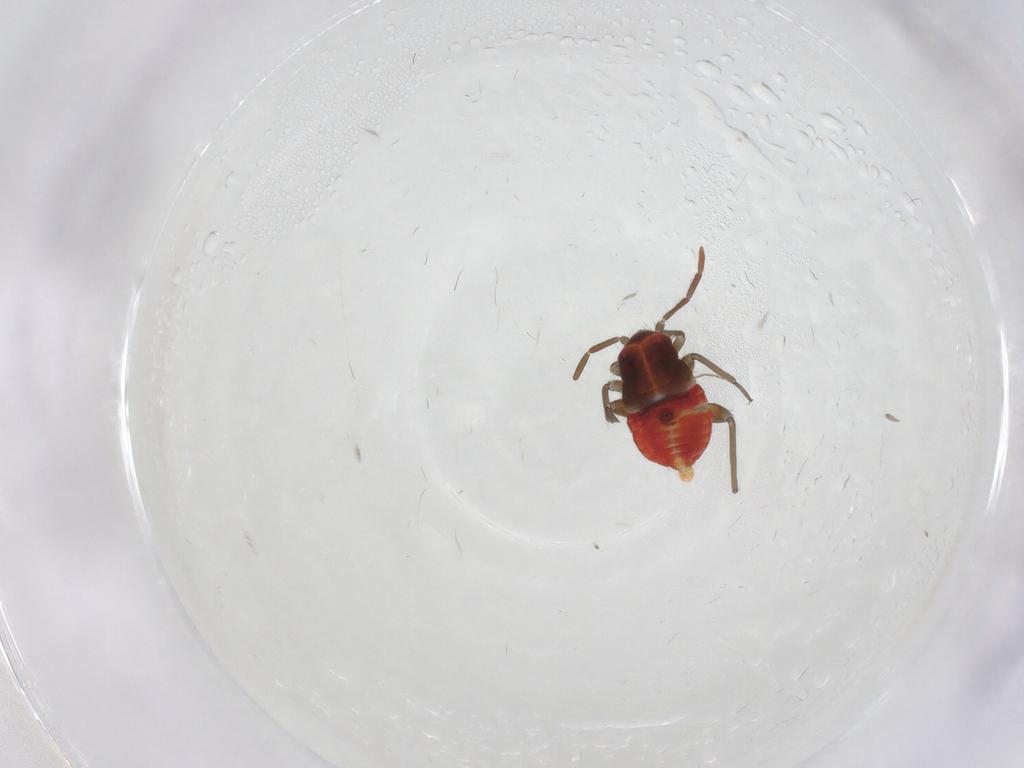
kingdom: Animalia
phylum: Arthropoda
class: Insecta
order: Hemiptera
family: Miridae
